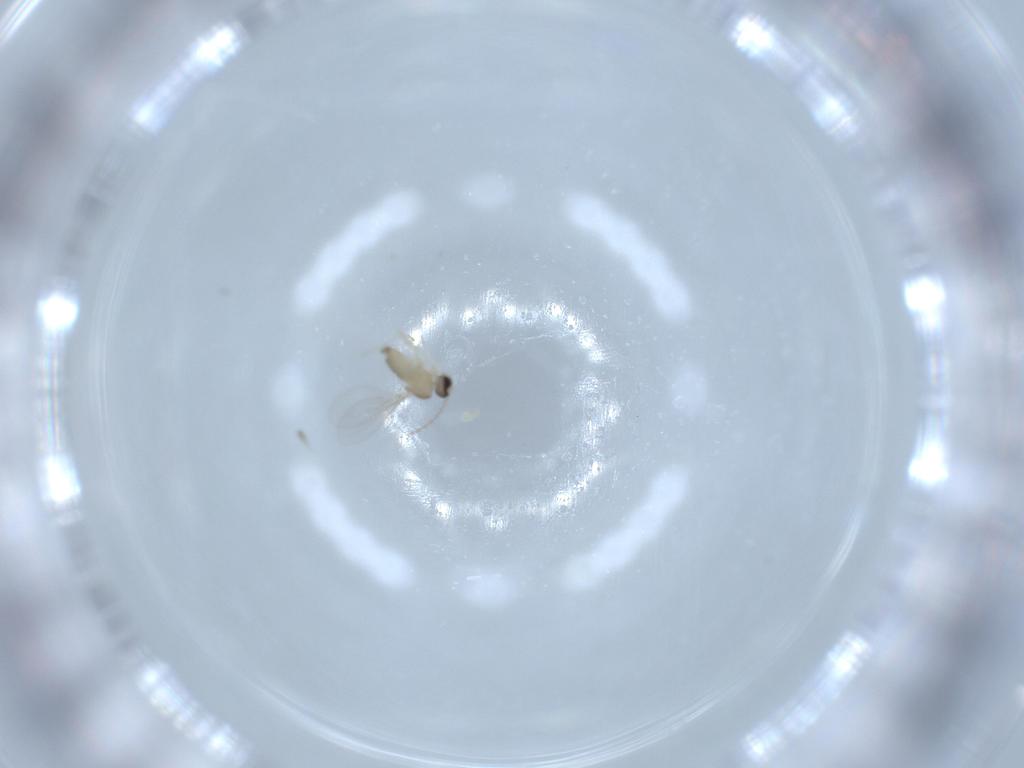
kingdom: Animalia
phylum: Arthropoda
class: Insecta
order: Diptera
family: Cecidomyiidae
